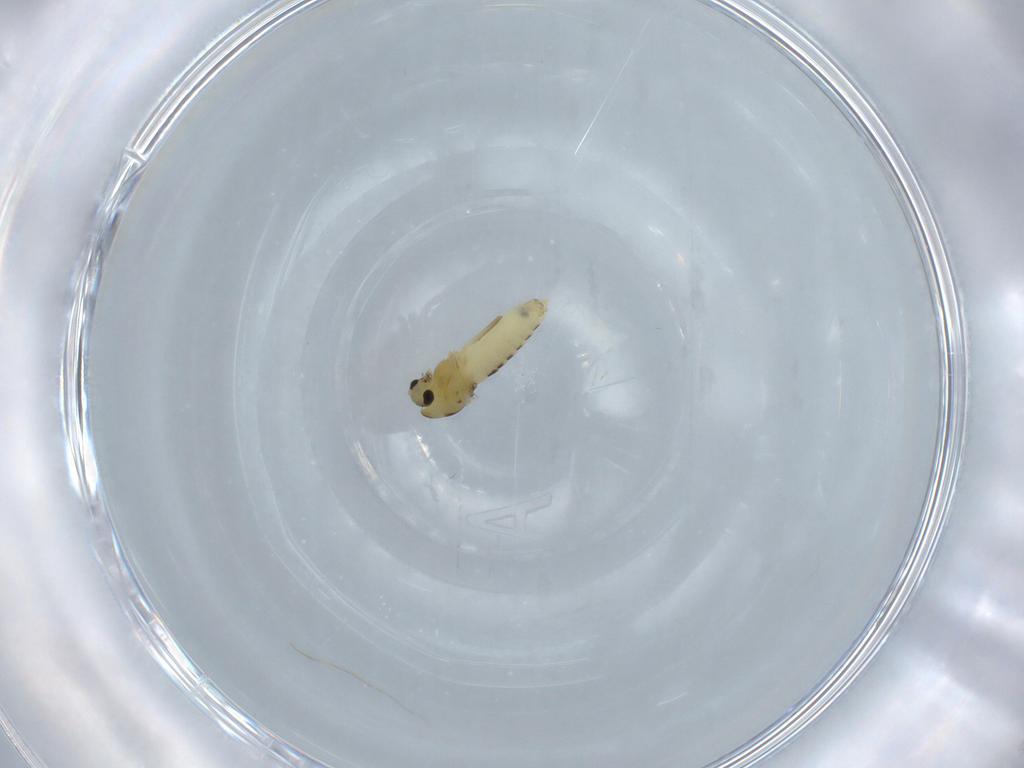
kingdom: Animalia
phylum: Arthropoda
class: Insecta
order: Diptera
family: Chironomidae
